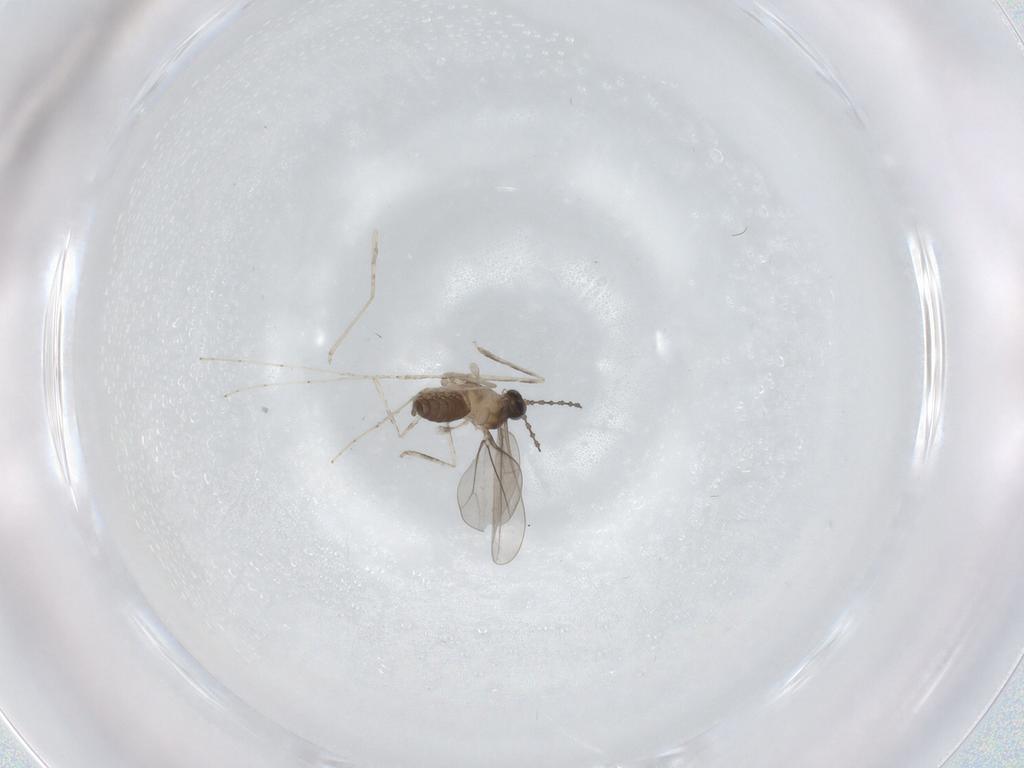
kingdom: Animalia
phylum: Arthropoda
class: Insecta
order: Diptera
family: Cecidomyiidae
